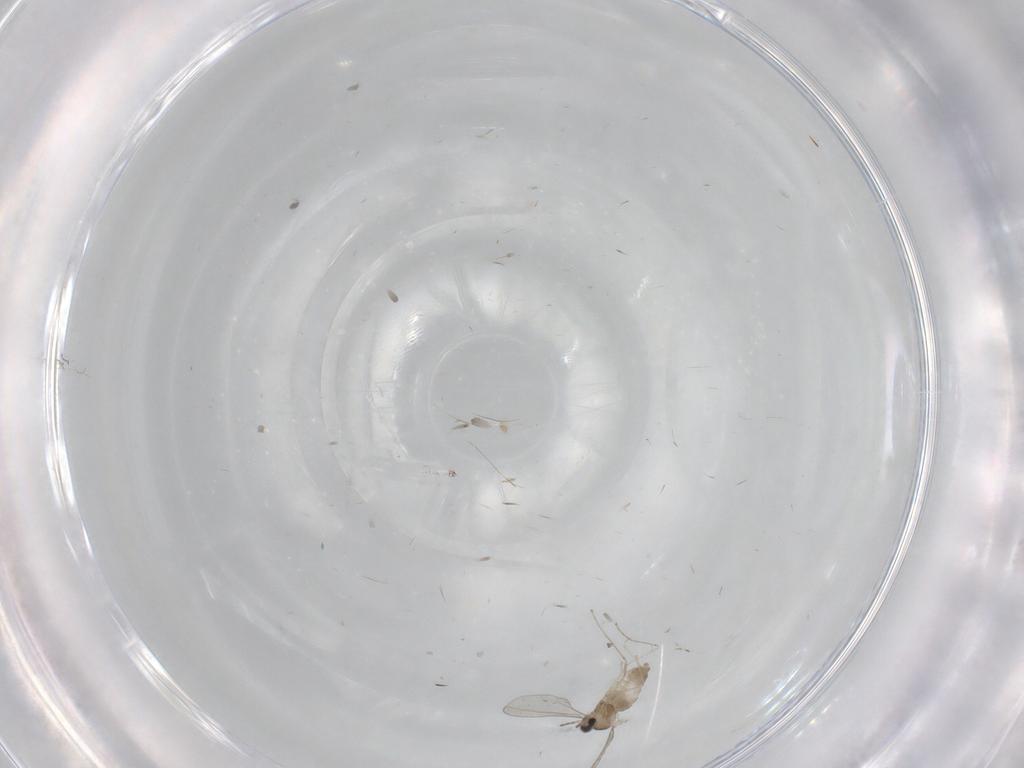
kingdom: Animalia
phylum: Arthropoda
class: Insecta
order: Diptera
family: Cecidomyiidae
